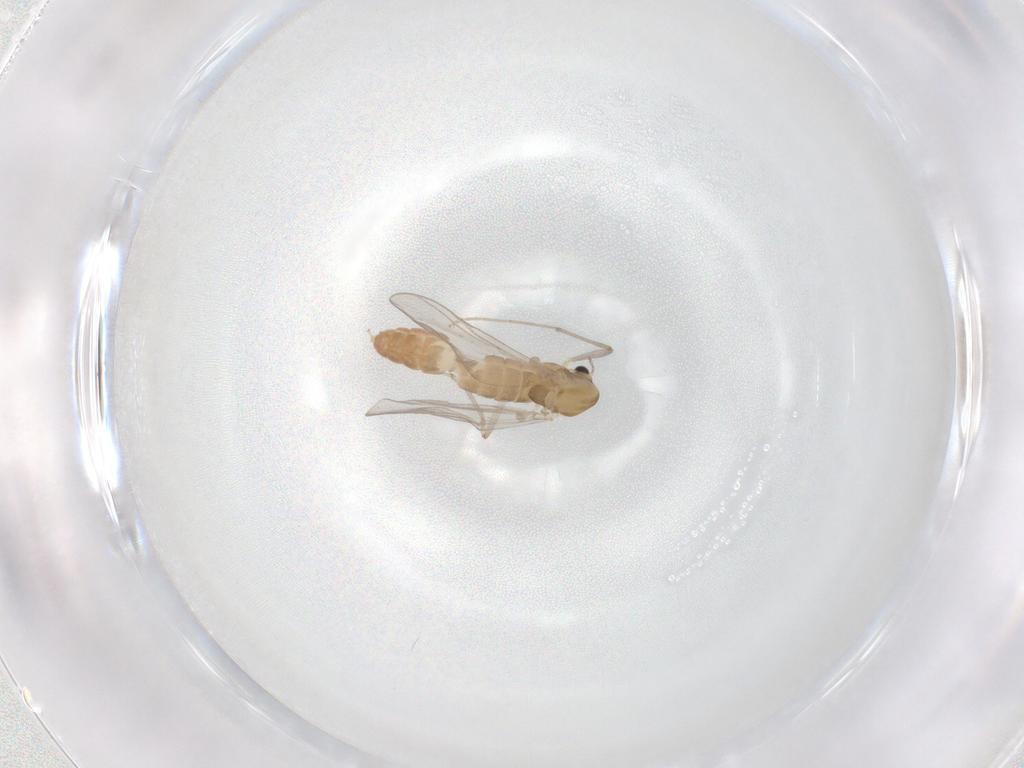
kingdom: Animalia
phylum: Arthropoda
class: Insecta
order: Diptera
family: Chironomidae
